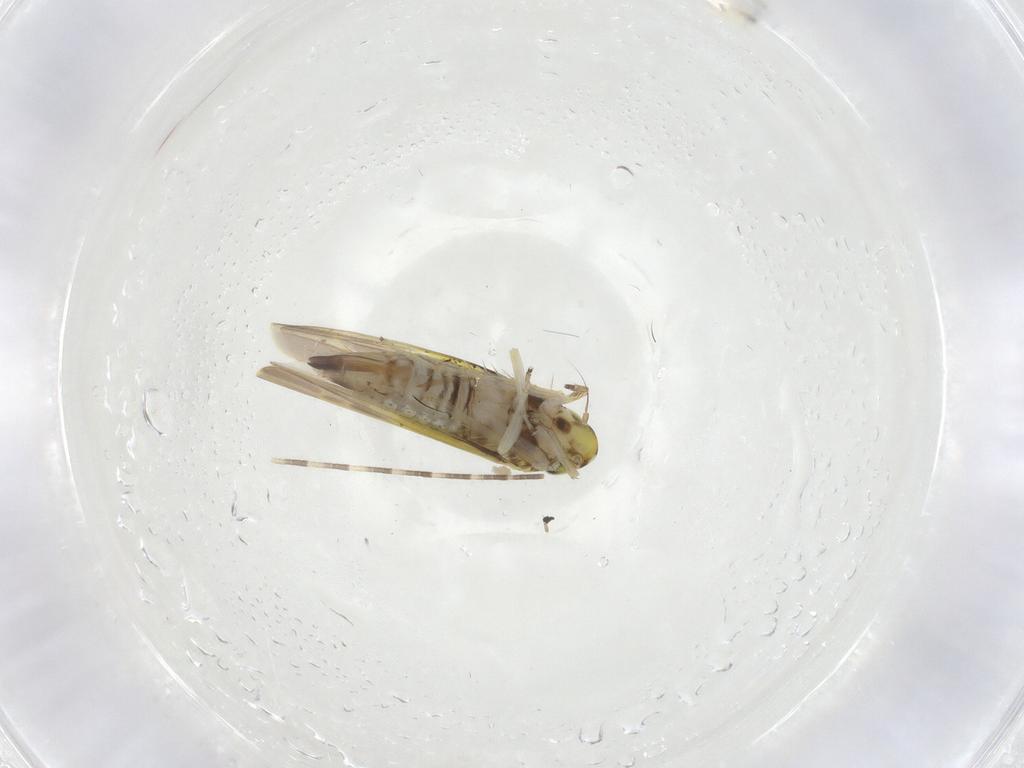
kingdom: Animalia
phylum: Arthropoda
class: Insecta
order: Hemiptera
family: Cicadellidae
